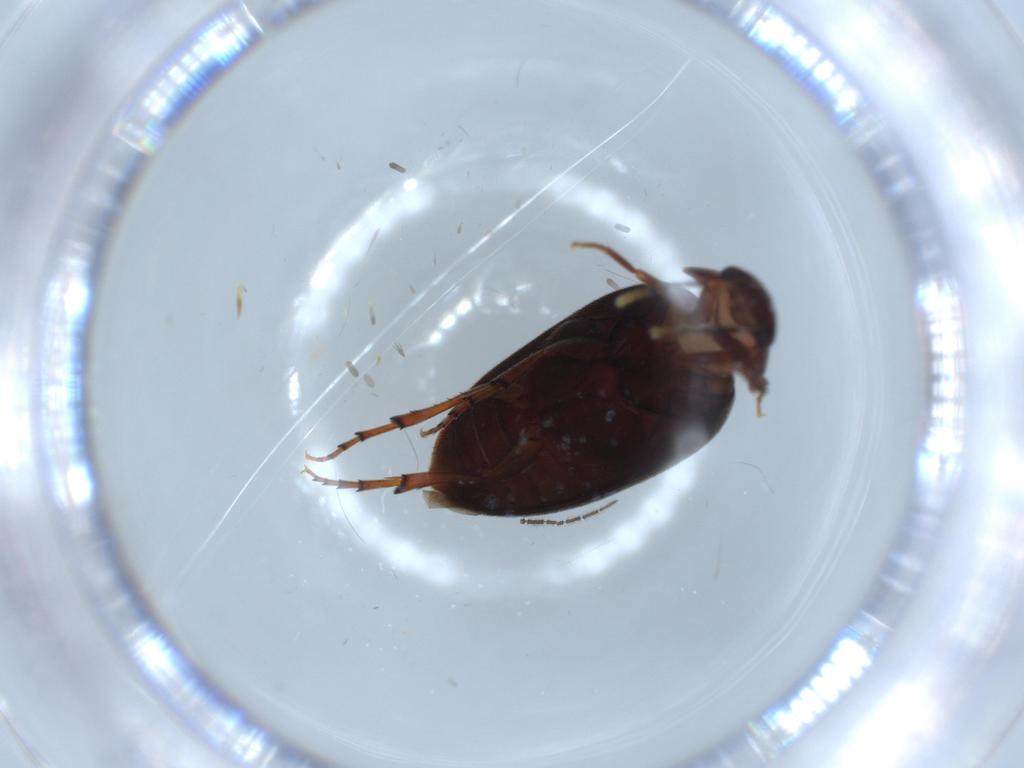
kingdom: Animalia
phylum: Arthropoda
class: Insecta
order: Coleoptera
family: Eucinetidae
